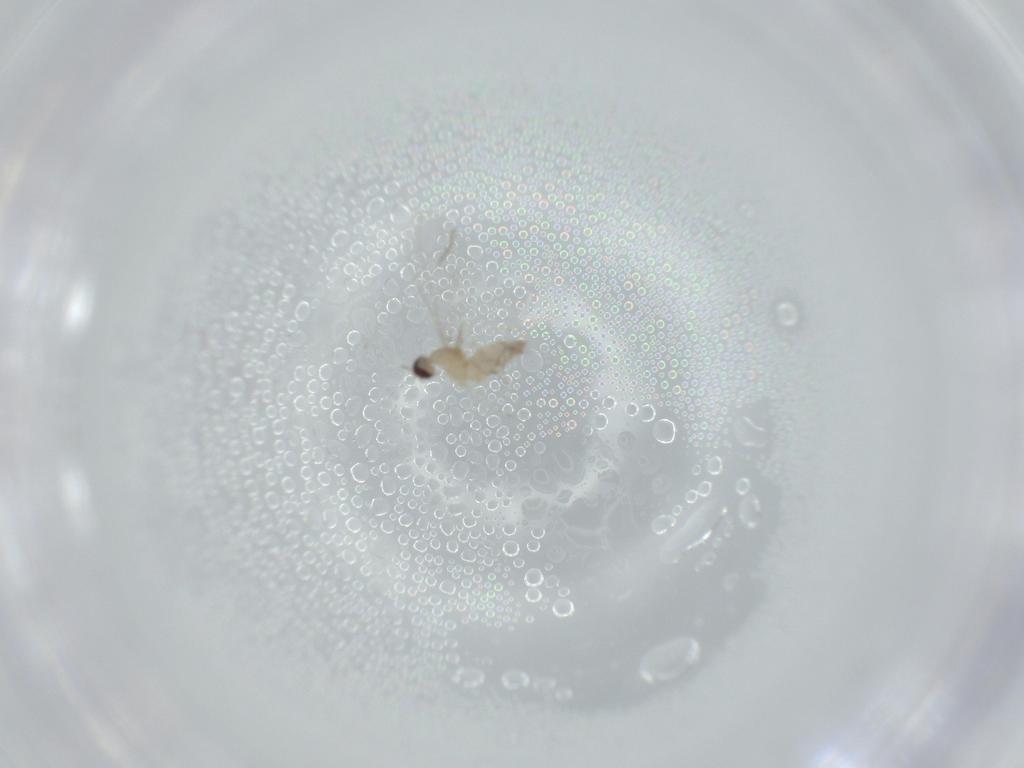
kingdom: Animalia
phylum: Arthropoda
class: Insecta
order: Diptera
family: Cecidomyiidae
